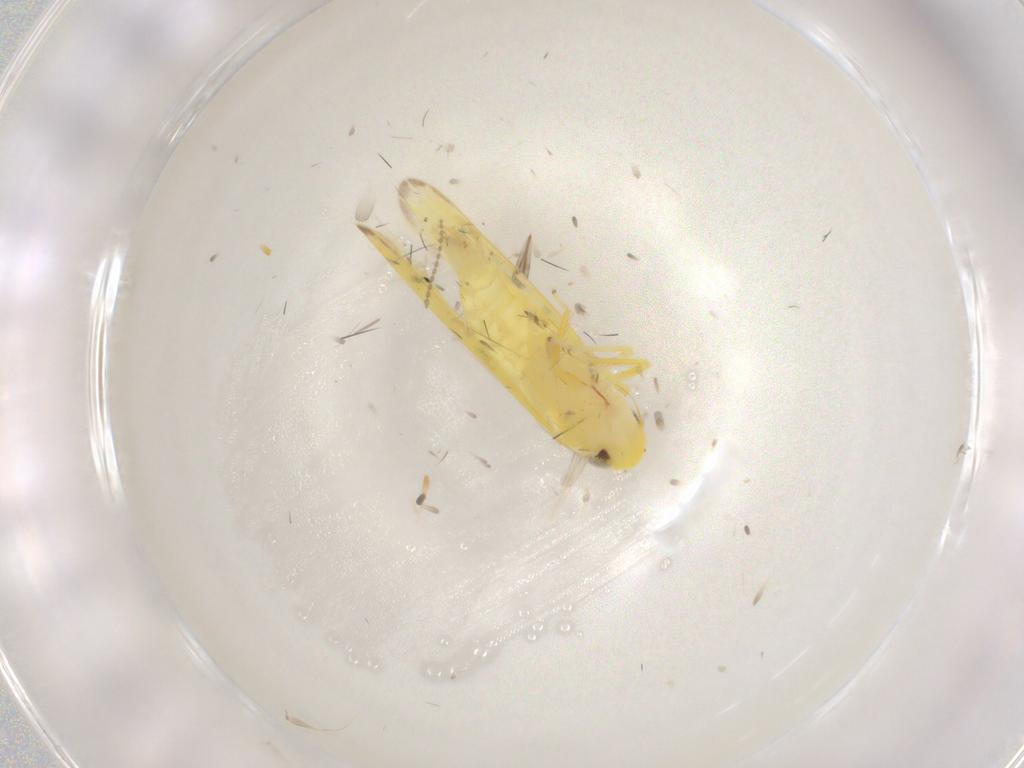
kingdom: Animalia
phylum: Arthropoda
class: Insecta
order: Hemiptera
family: Cicadellidae
